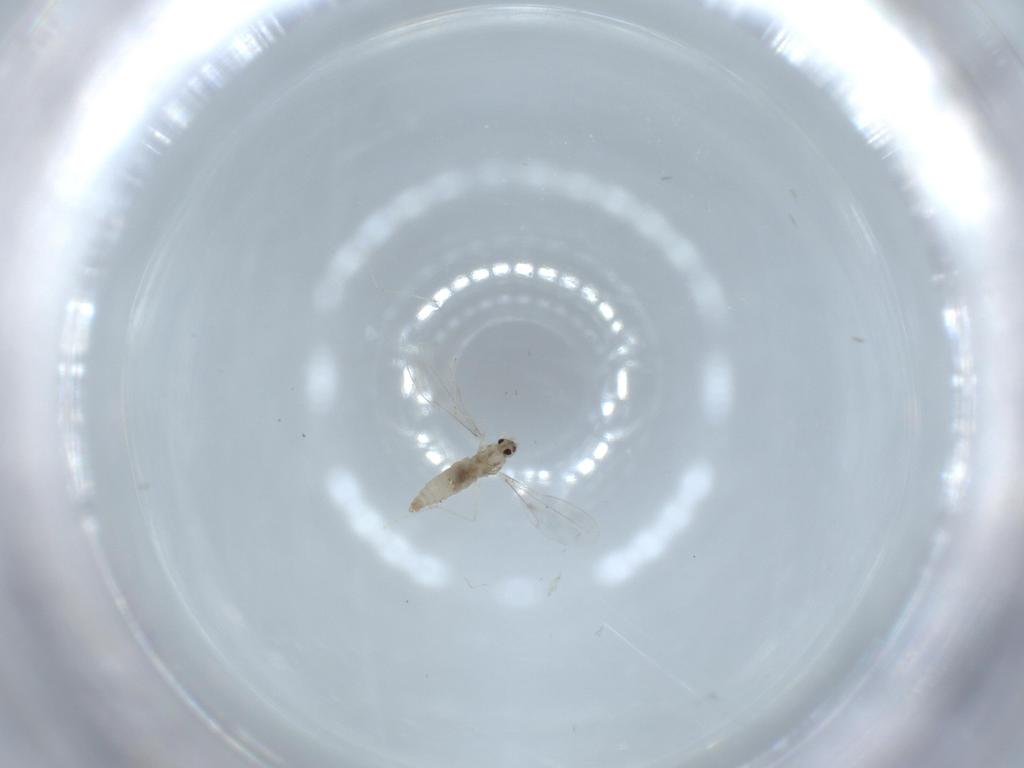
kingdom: Animalia
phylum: Arthropoda
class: Insecta
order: Diptera
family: Cecidomyiidae
